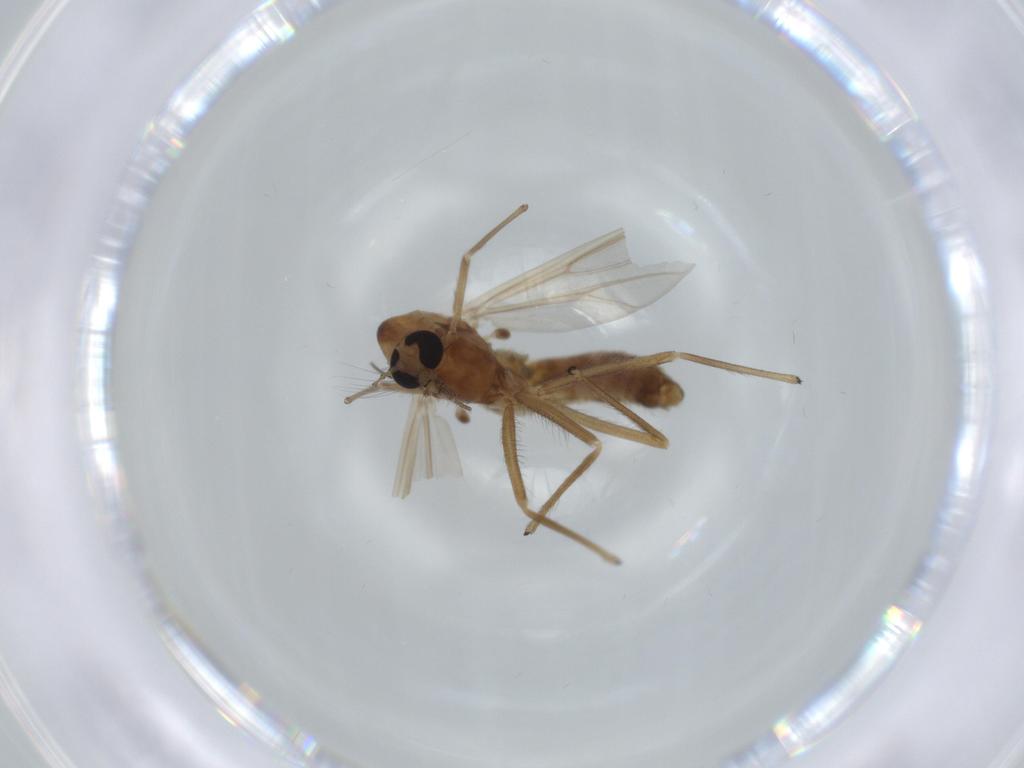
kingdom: Animalia
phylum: Arthropoda
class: Insecta
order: Diptera
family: Chironomidae
